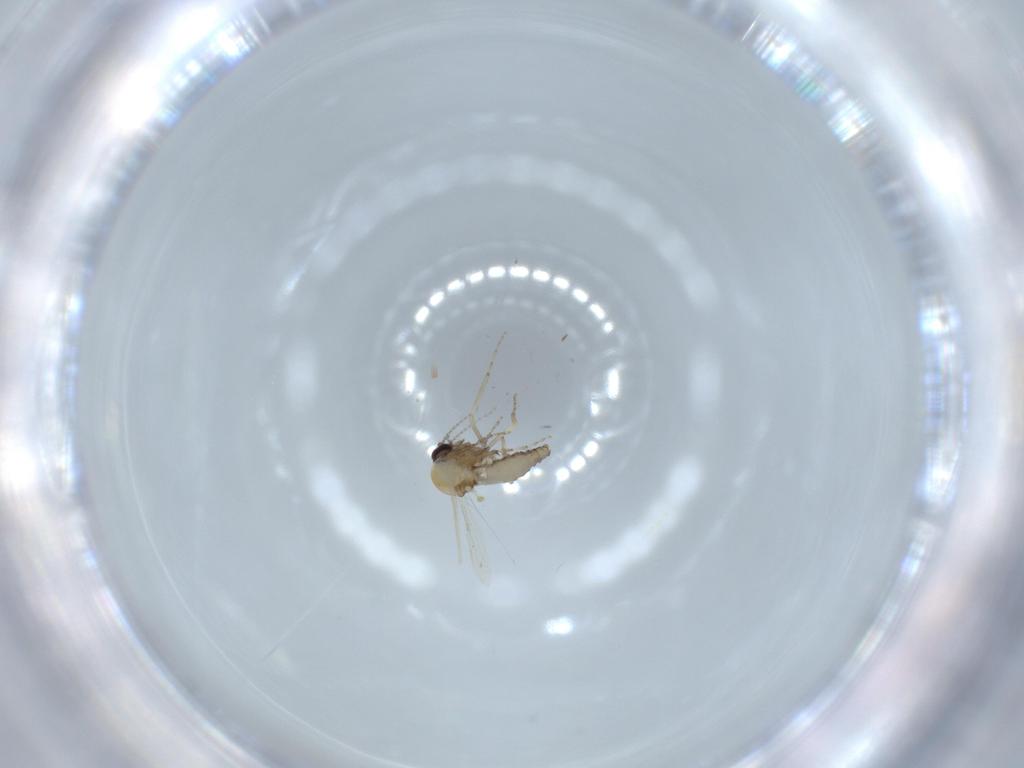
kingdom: Animalia
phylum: Arthropoda
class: Insecta
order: Diptera
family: Ceratopogonidae
